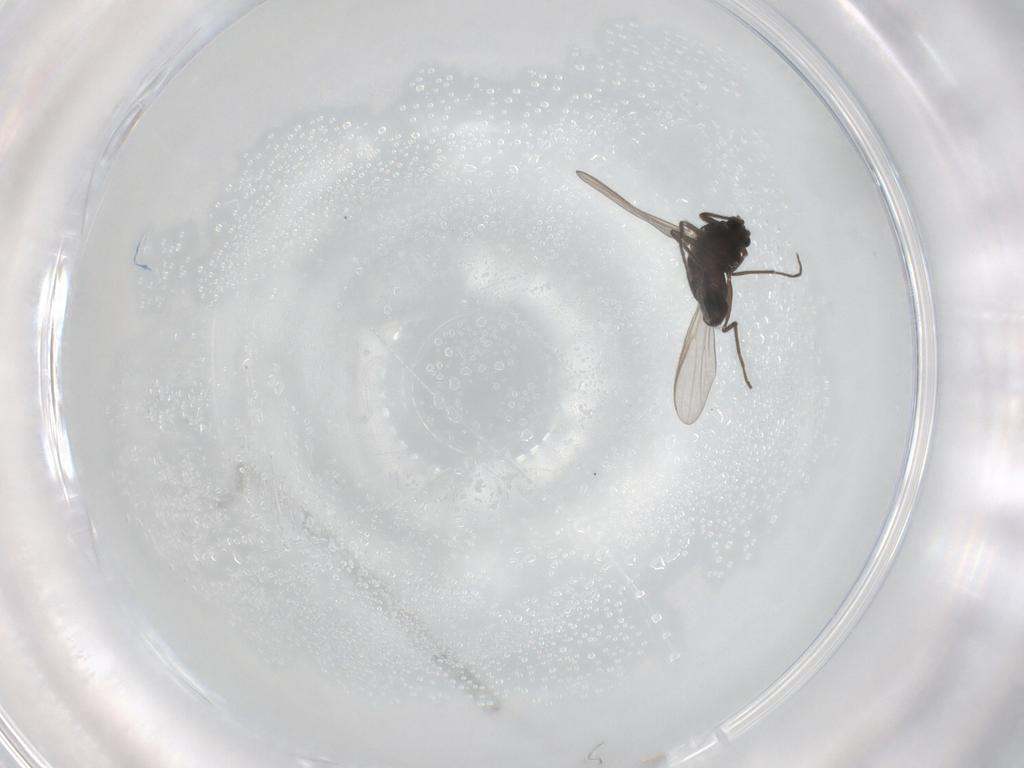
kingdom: Animalia
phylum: Arthropoda
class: Insecta
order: Diptera
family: Chironomidae
